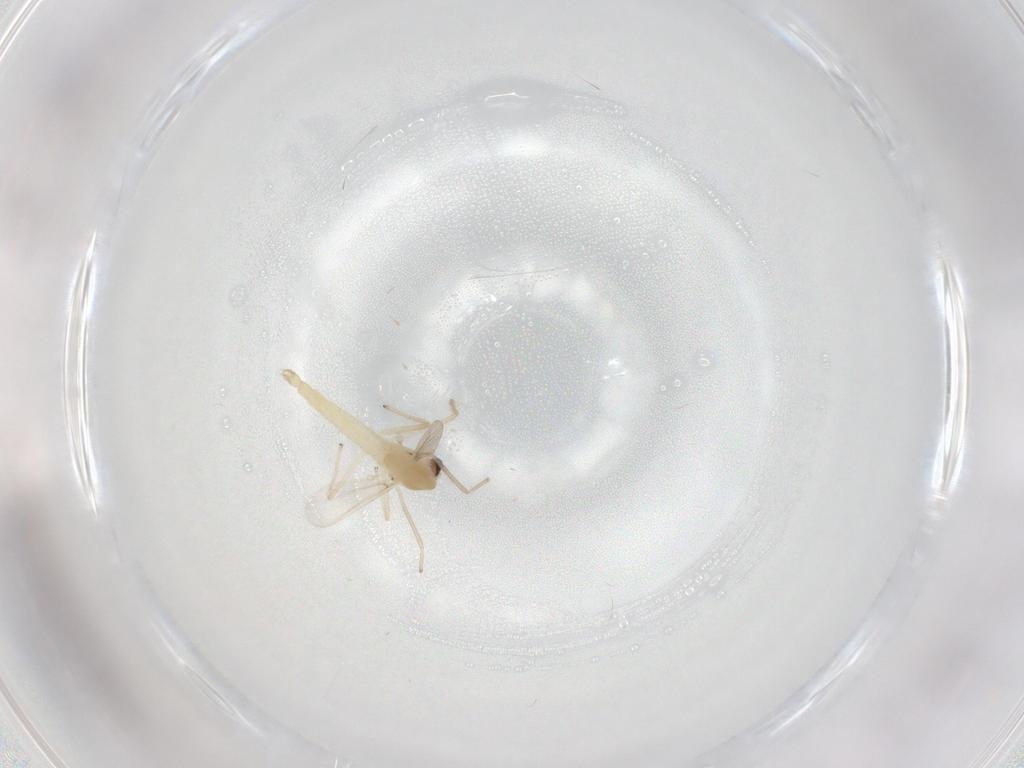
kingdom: Animalia
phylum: Arthropoda
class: Insecta
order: Diptera
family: Chironomidae
